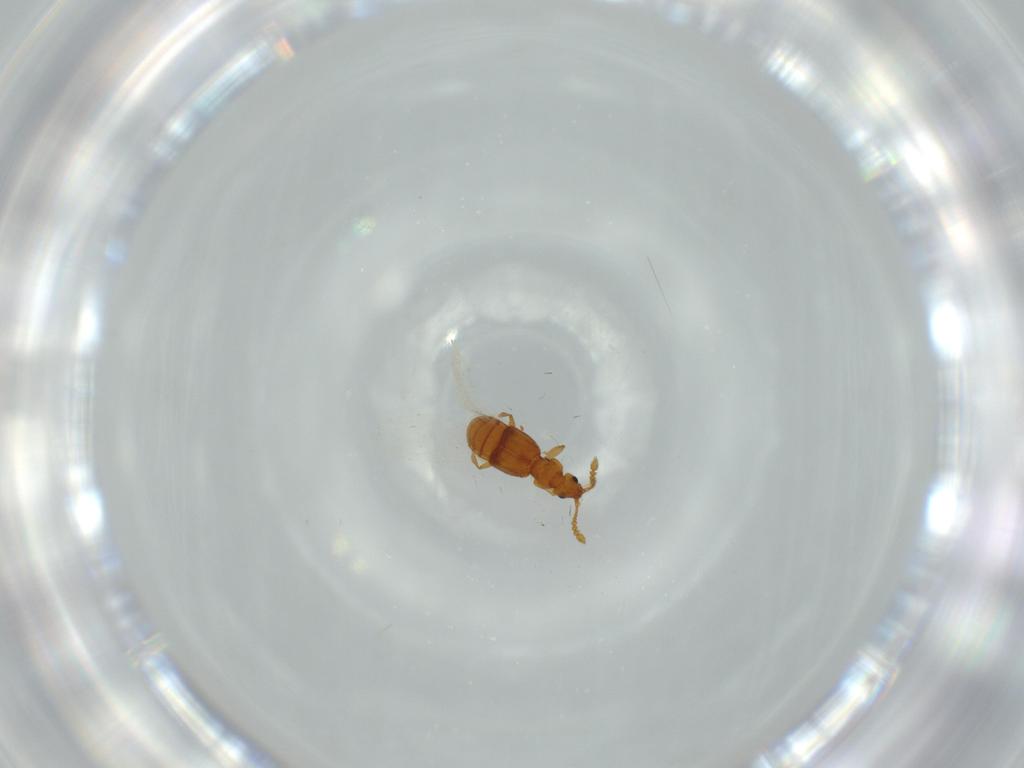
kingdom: Animalia
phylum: Arthropoda
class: Insecta
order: Coleoptera
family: Staphylinidae
